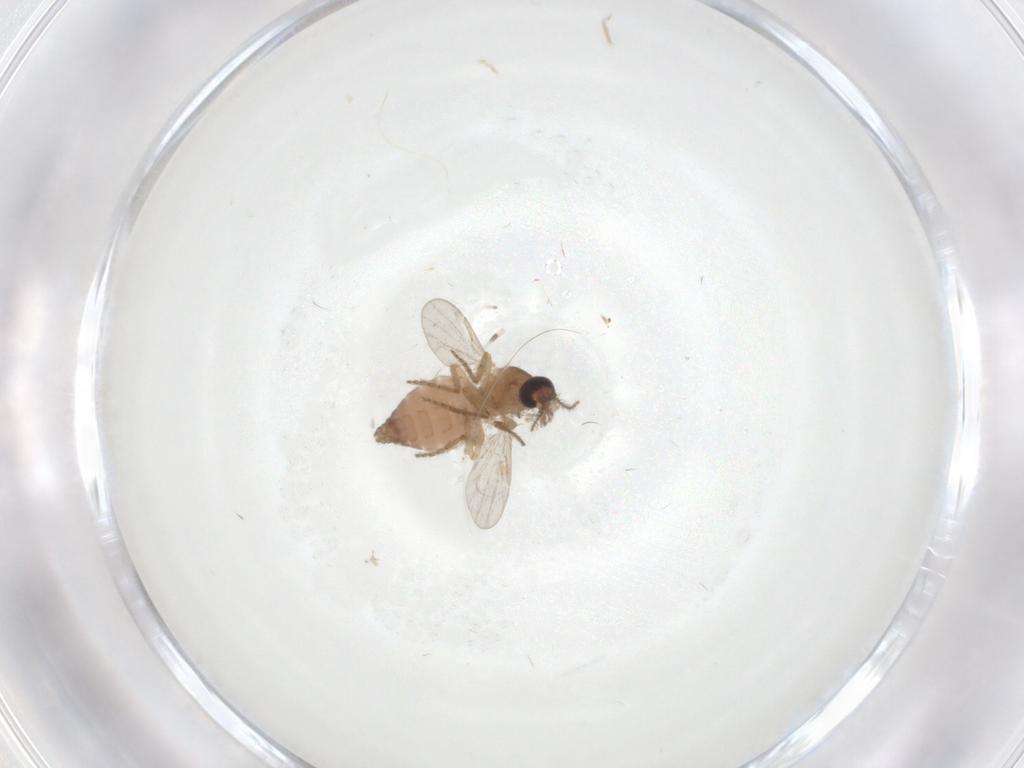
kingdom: Animalia
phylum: Arthropoda
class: Insecta
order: Diptera
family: Ceratopogonidae
